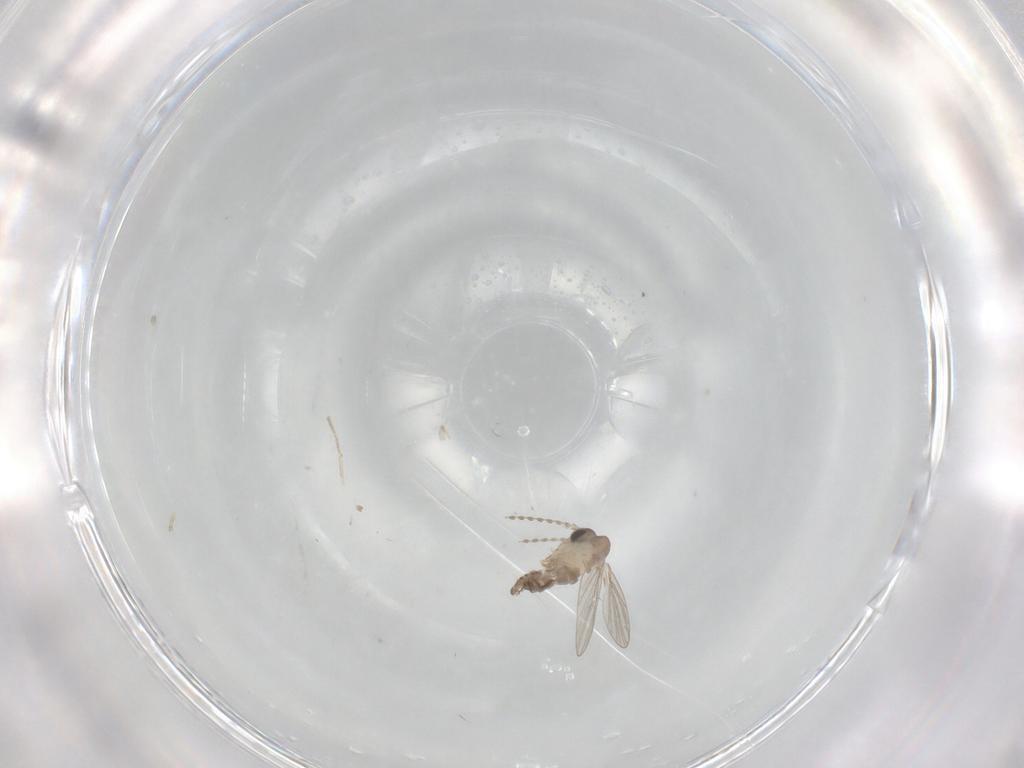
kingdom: Animalia
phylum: Arthropoda
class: Insecta
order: Diptera
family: Psychodidae
